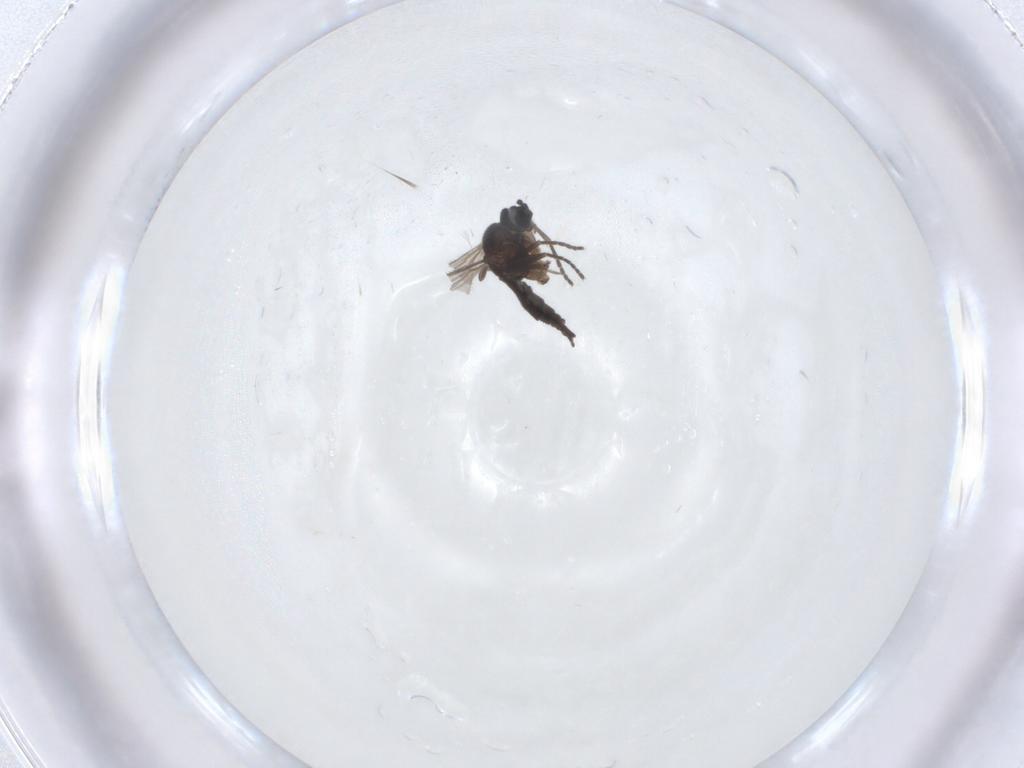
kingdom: Animalia
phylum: Arthropoda
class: Insecta
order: Diptera
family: Sciaridae
